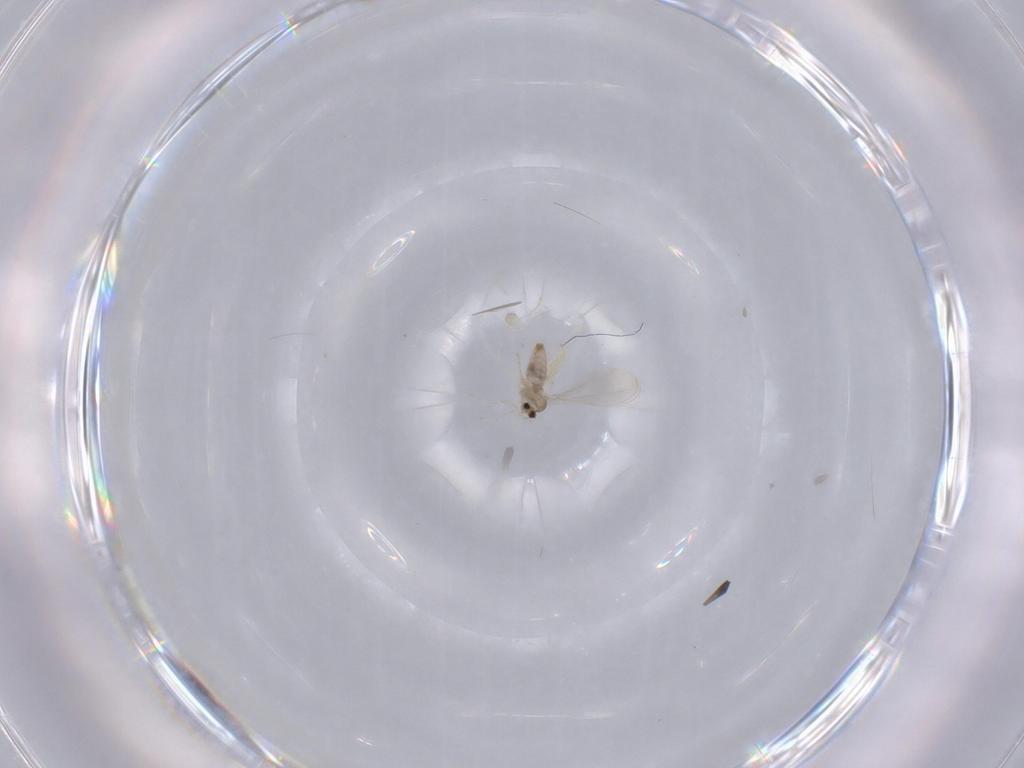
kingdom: Animalia
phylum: Arthropoda
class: Insecta
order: Diptera
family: Cecidomyiidae
